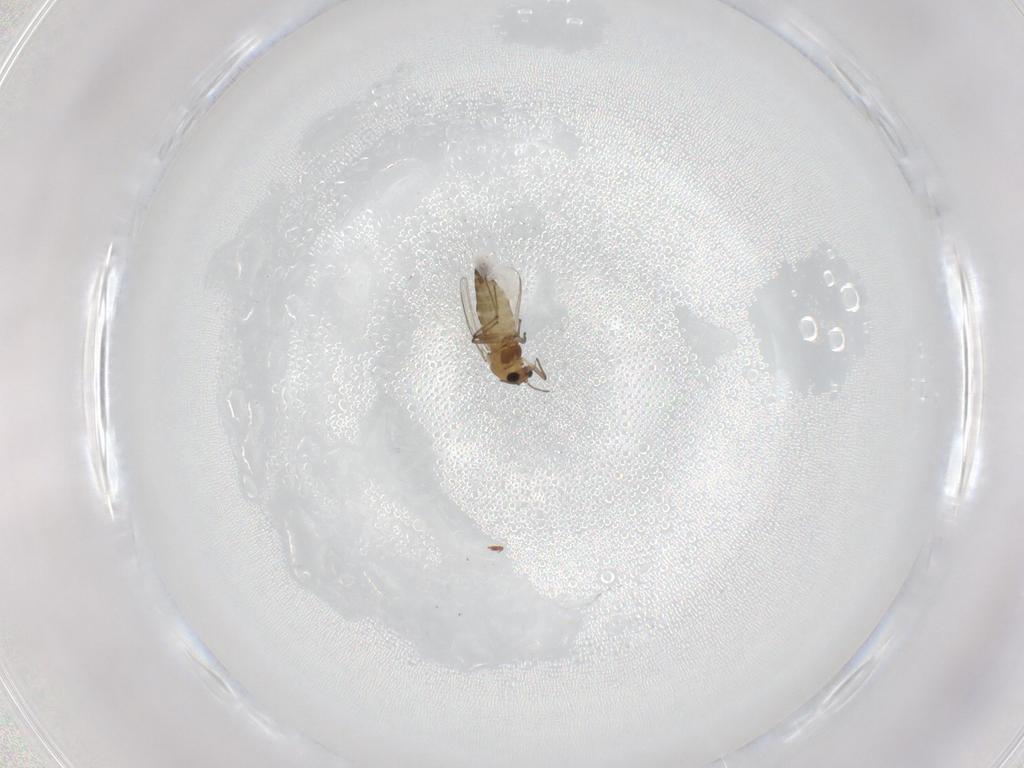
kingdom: Animalia
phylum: Arthropoda
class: Insecta
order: Diptera
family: Chironomidae
